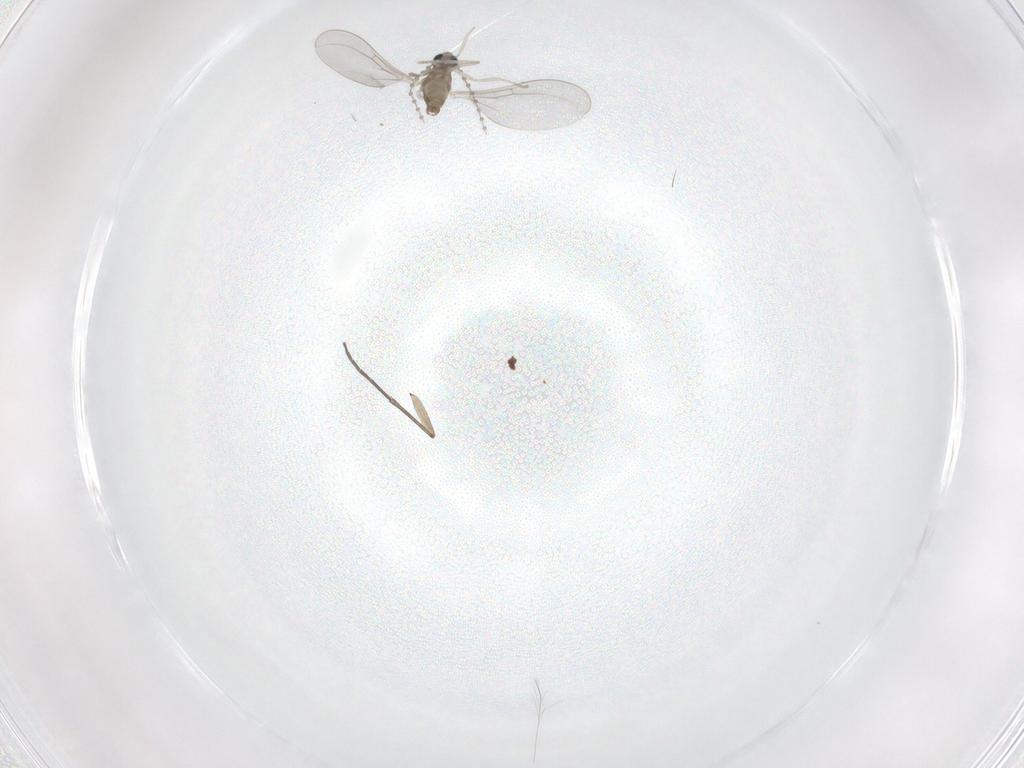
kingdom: Animalia
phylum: Arthropoda
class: Insecta
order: Diptera
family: Cecidomyiidae
